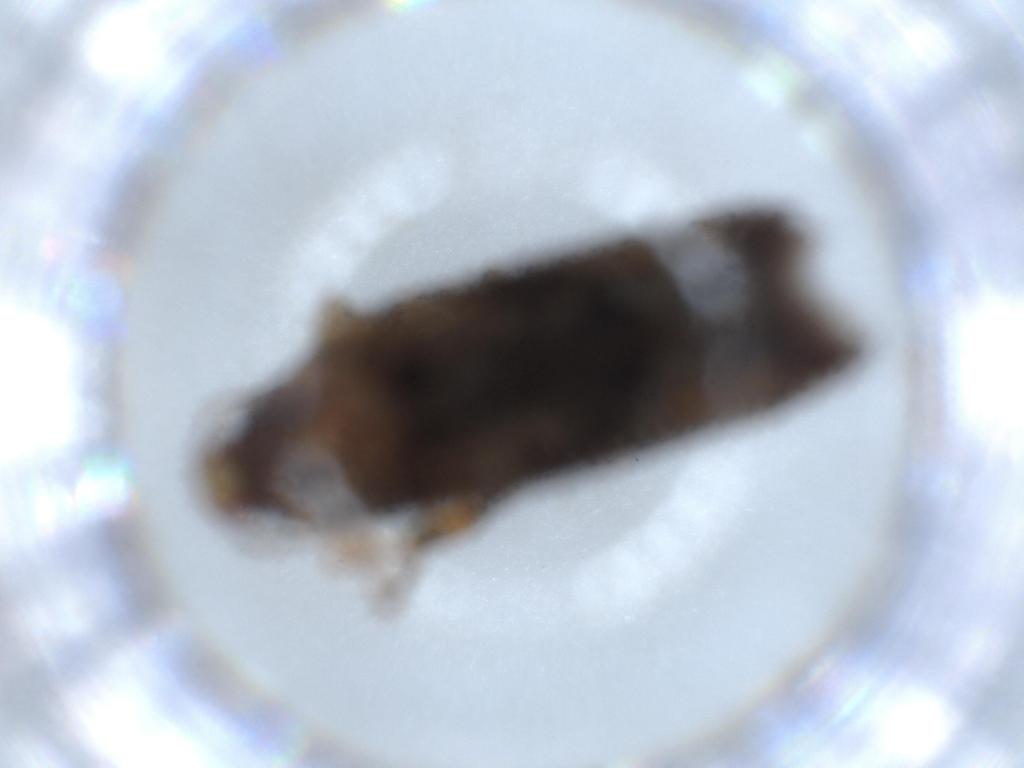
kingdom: Animalia
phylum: Arthropoda
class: Insecta
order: Lepidoptera
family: Cosmopterigidae
